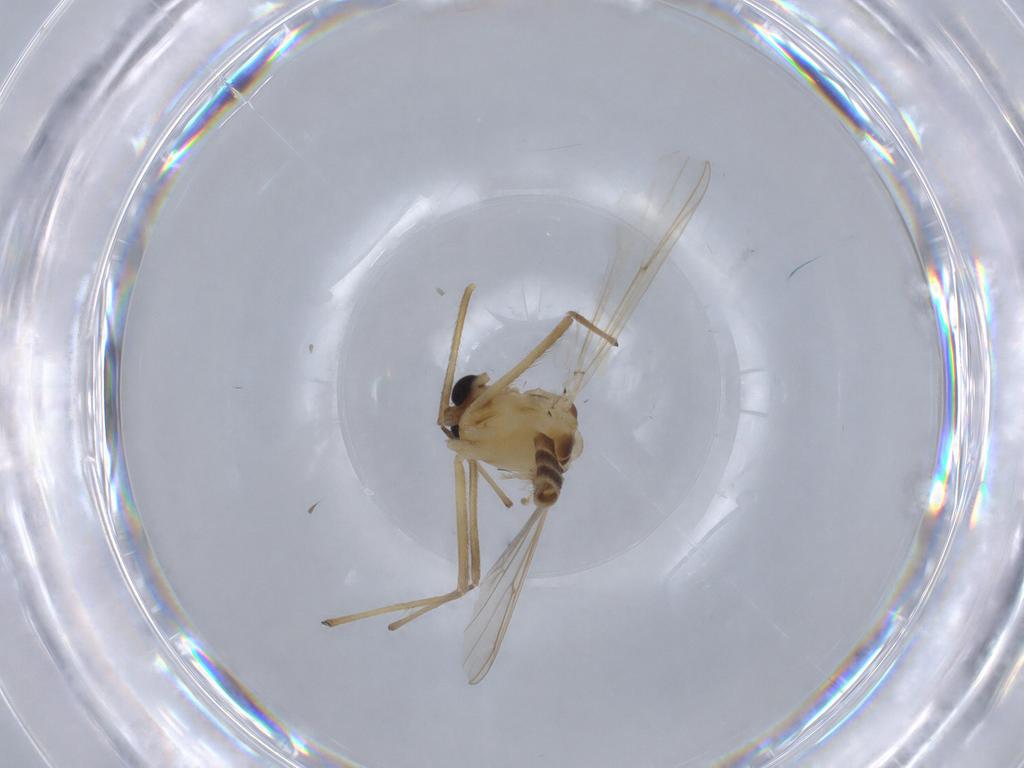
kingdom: Animalia
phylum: Arthropoda
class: Insecta
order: Diptera
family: Chironomidae
